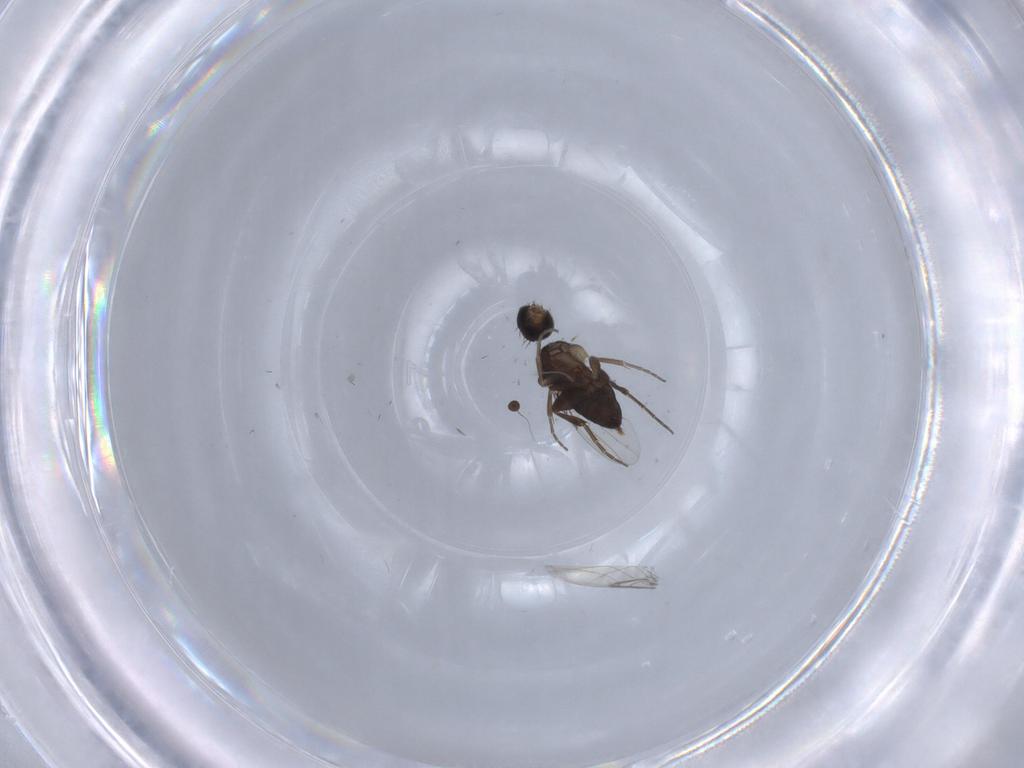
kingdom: Animalia
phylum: Arthropoda
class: Insecta
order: Diptera
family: Phoridae
